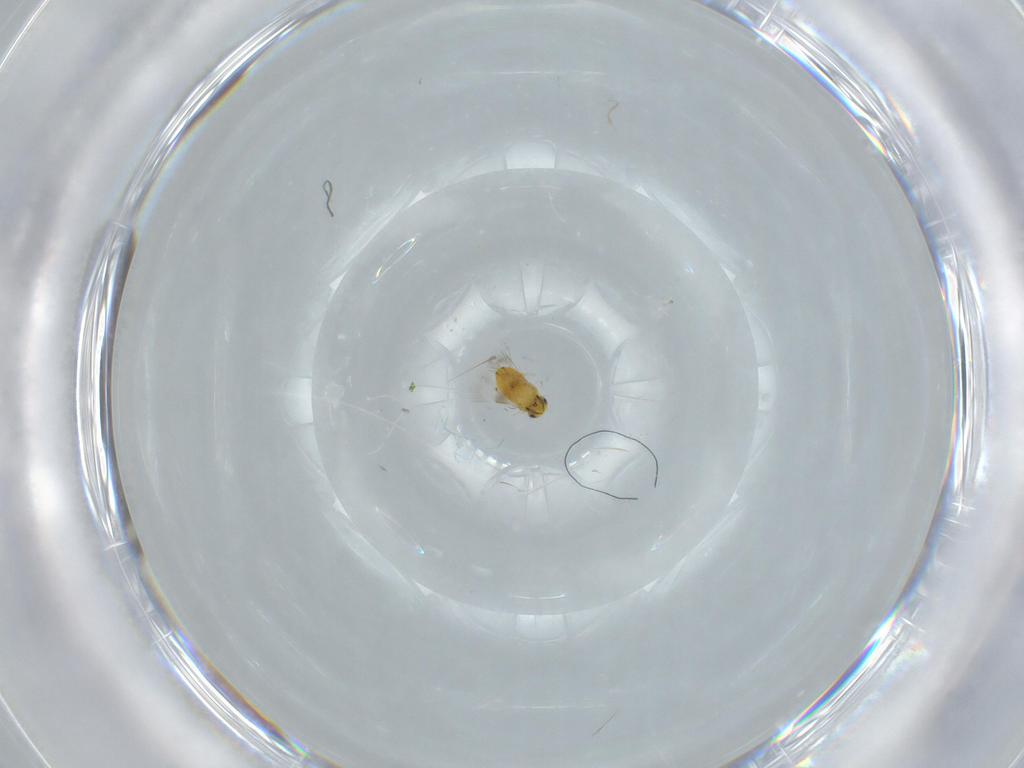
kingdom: Animalia
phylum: Arthropoda
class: Insecta
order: Hymenoptera
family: Signiphoridae
